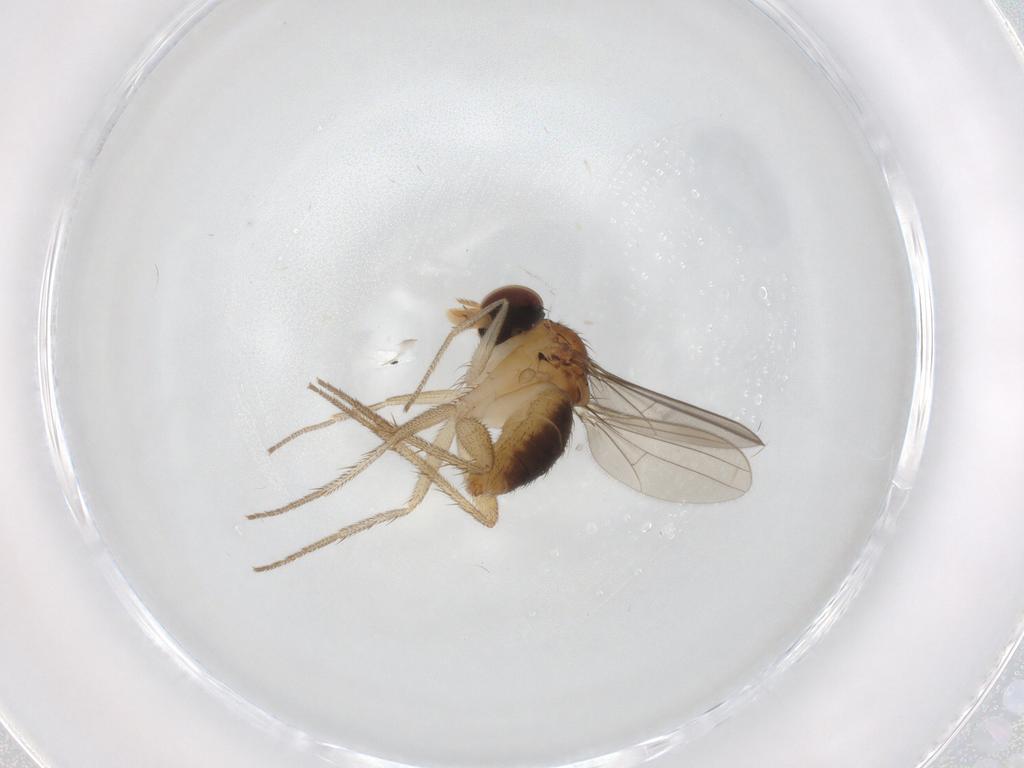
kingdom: Animalia
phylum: Arthropoda
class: Insecta
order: Diptera
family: Dolichopodidae
